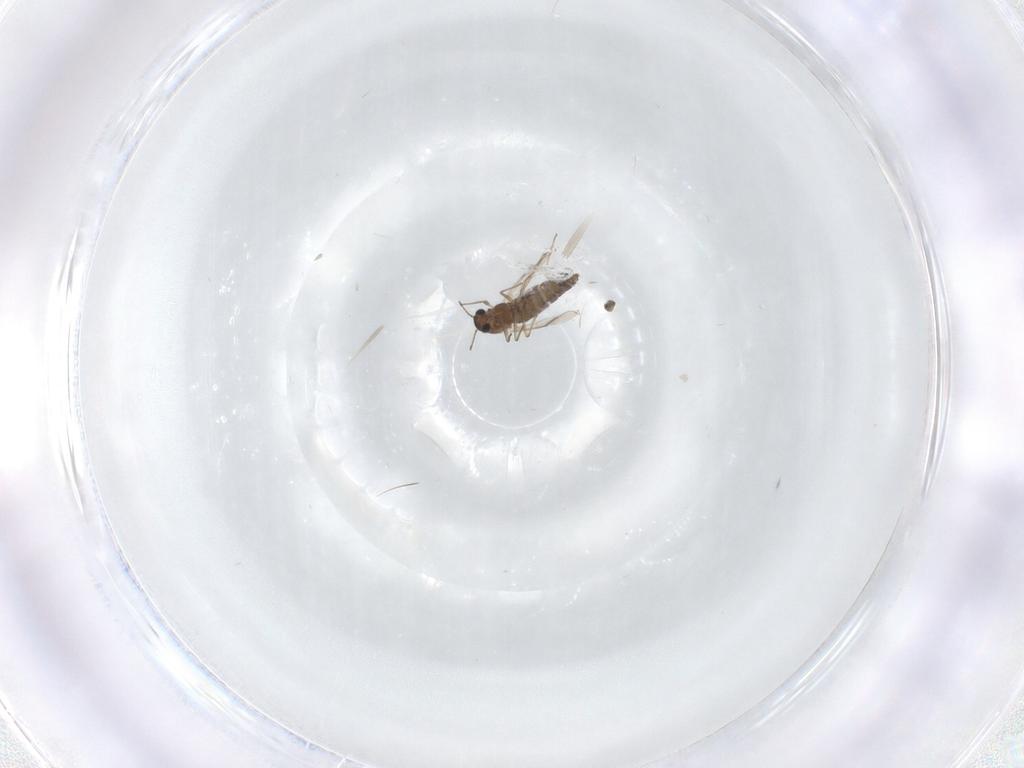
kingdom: Animalia
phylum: Arthropoda
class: Insecta
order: Diptera
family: Chironomidae
